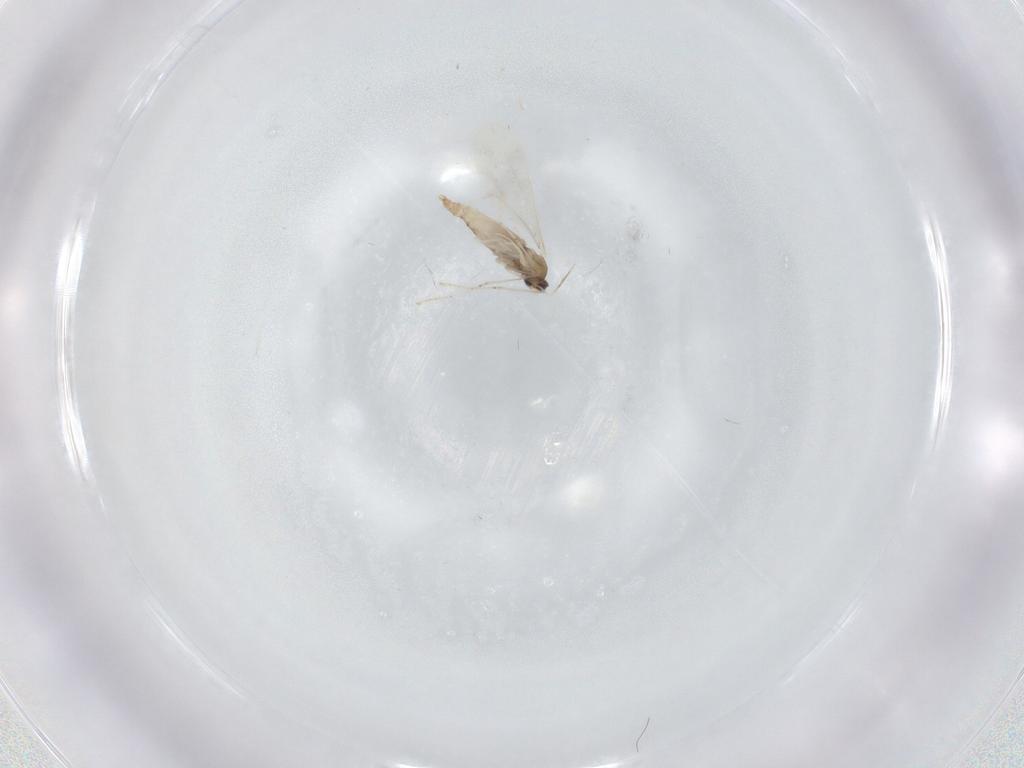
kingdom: Animalia
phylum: Arthropoda
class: Insecta
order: Diptera
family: Cecidomyiidae
